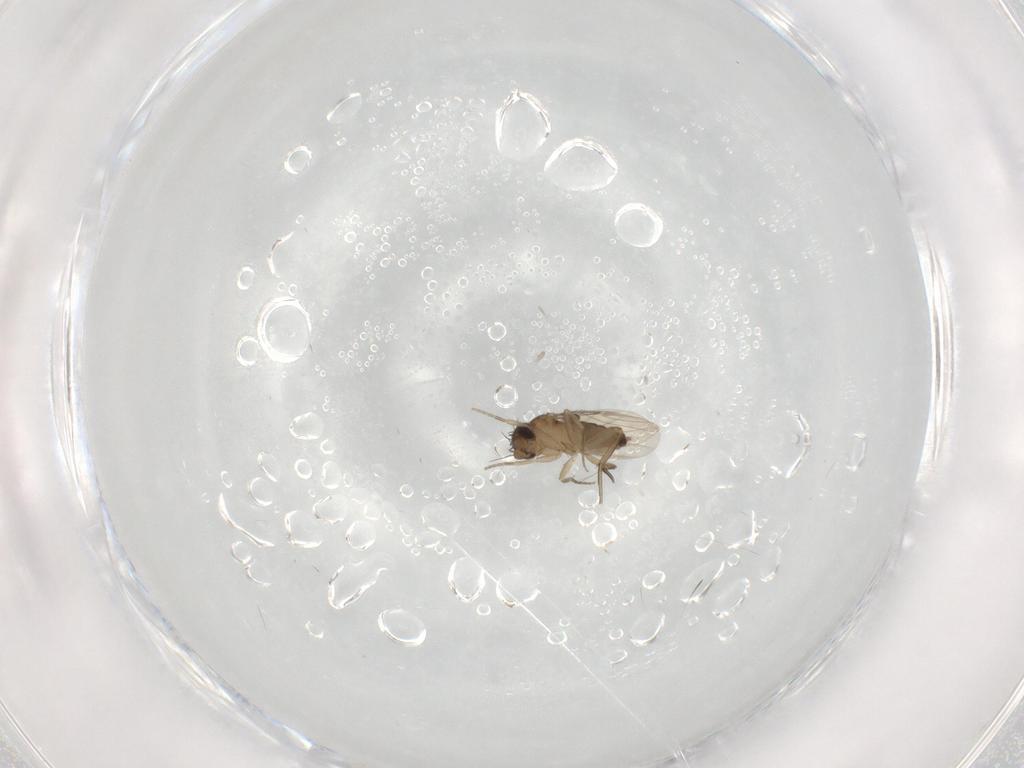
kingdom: Animalia
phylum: Arthropoda
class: Insecta
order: Diptera
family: Phoridae
